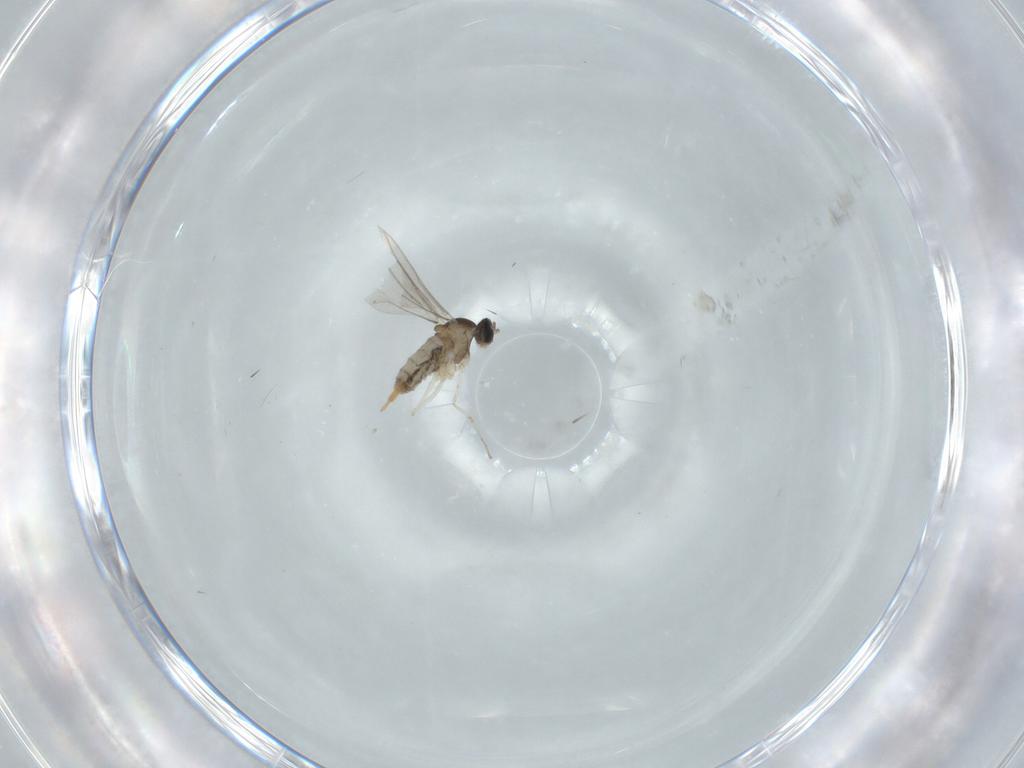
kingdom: Animalia
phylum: Arthropoda
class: Insecta
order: Diptera
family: Cecidomyiidae
